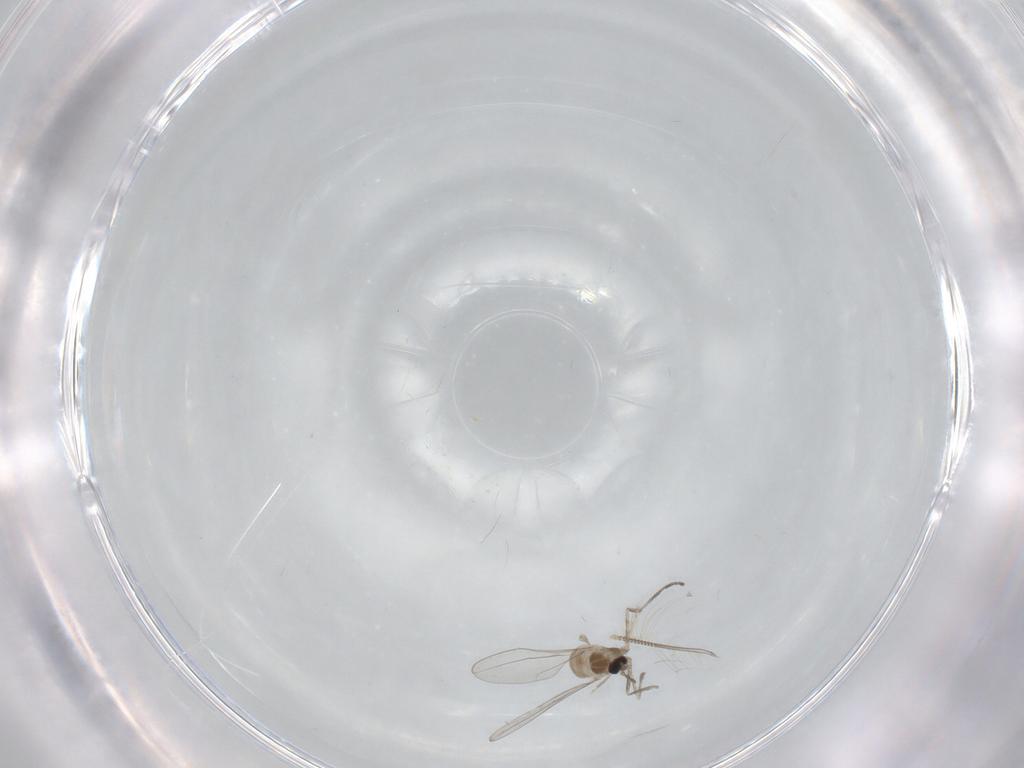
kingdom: Animalia
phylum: Arthropoda
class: Insecta
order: Diptera
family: Cecidomyiidae
